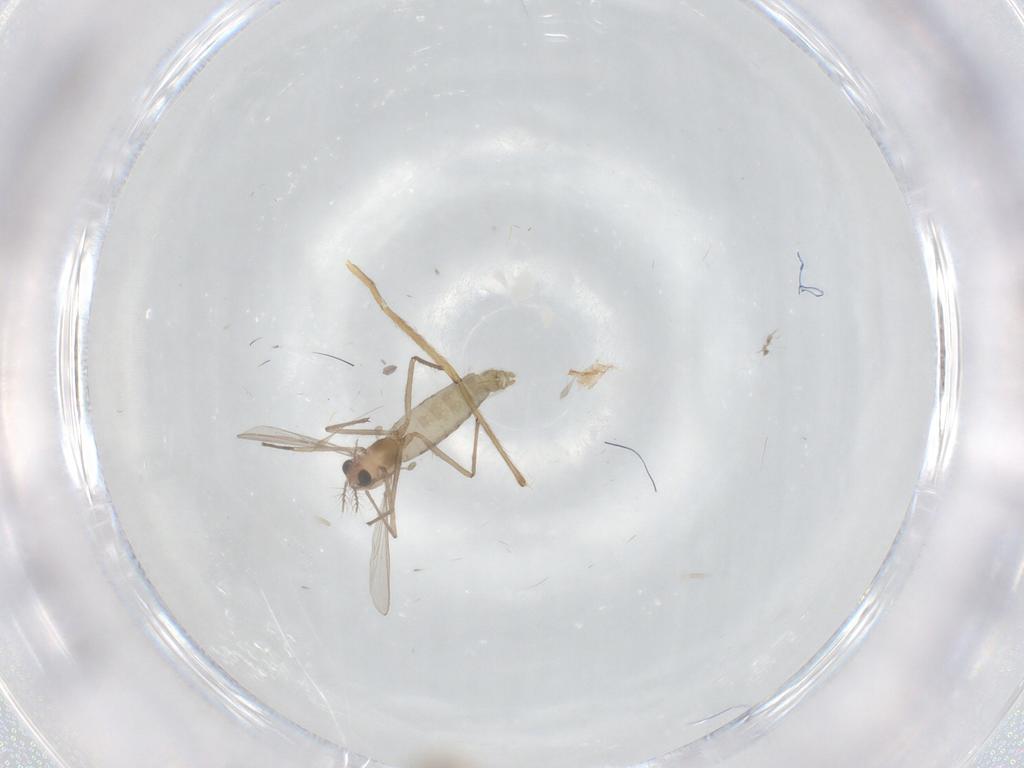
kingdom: Animalia
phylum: Arthropoda
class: Insecta
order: Diptera
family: Chironomidae
